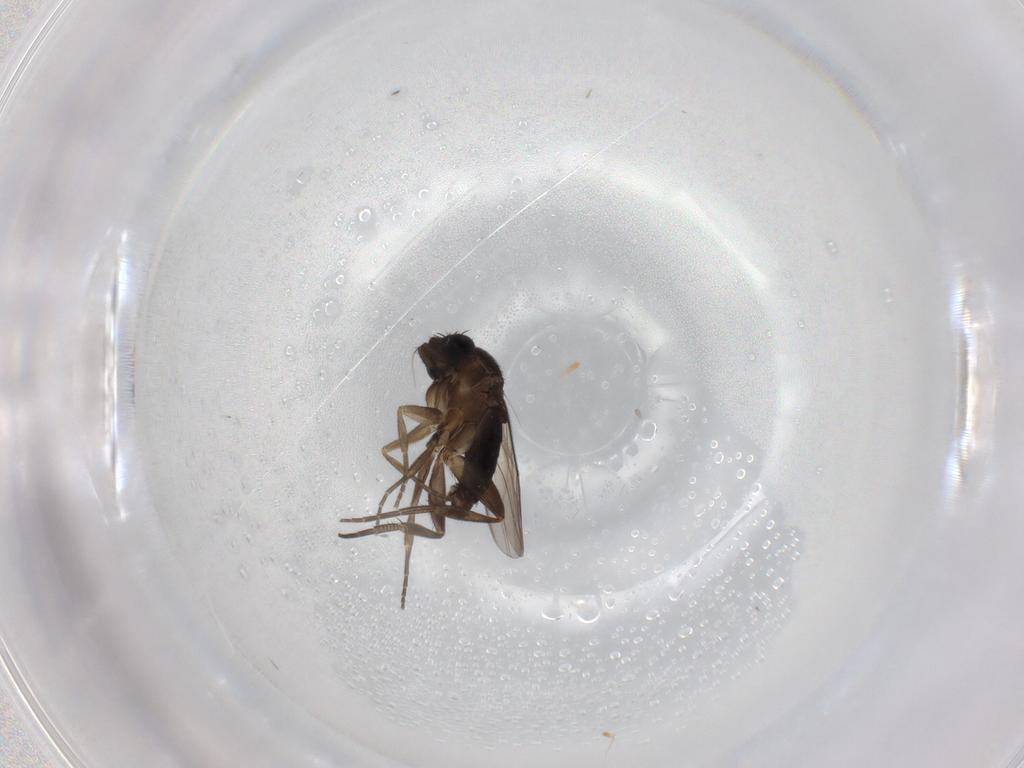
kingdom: Animalia
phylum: Arthropoda
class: Insecta
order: Diptera
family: Phoridae
